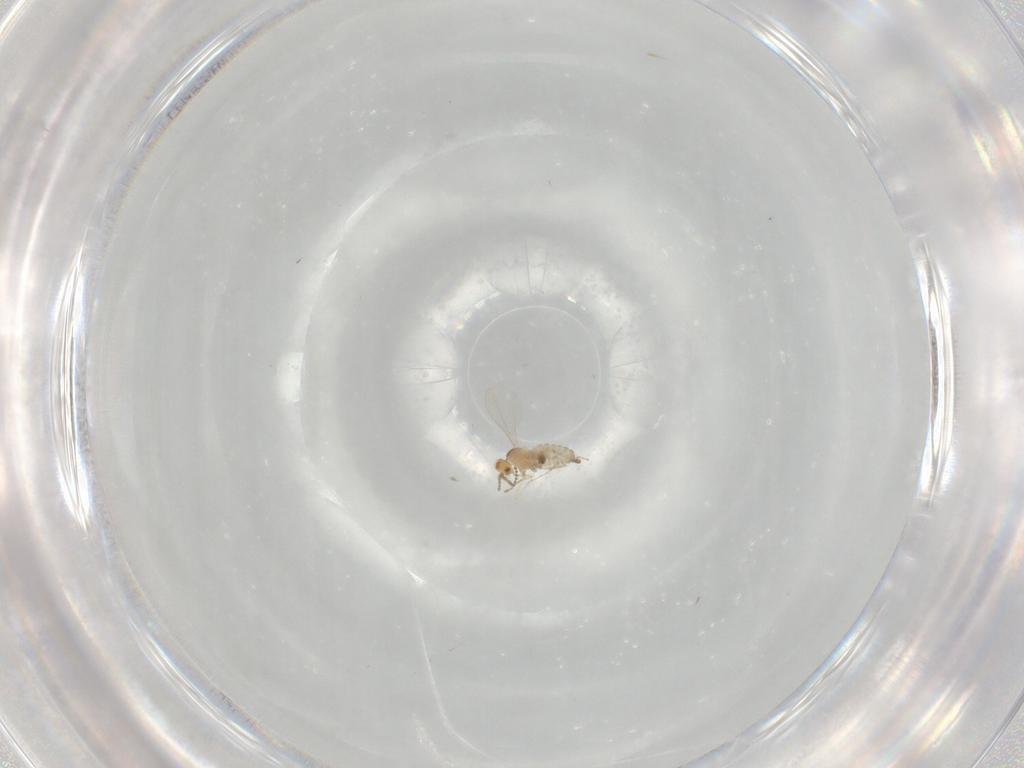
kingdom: Animalia
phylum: Arthropoda
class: Insecta
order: Diptera
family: Cecidomyiidae
